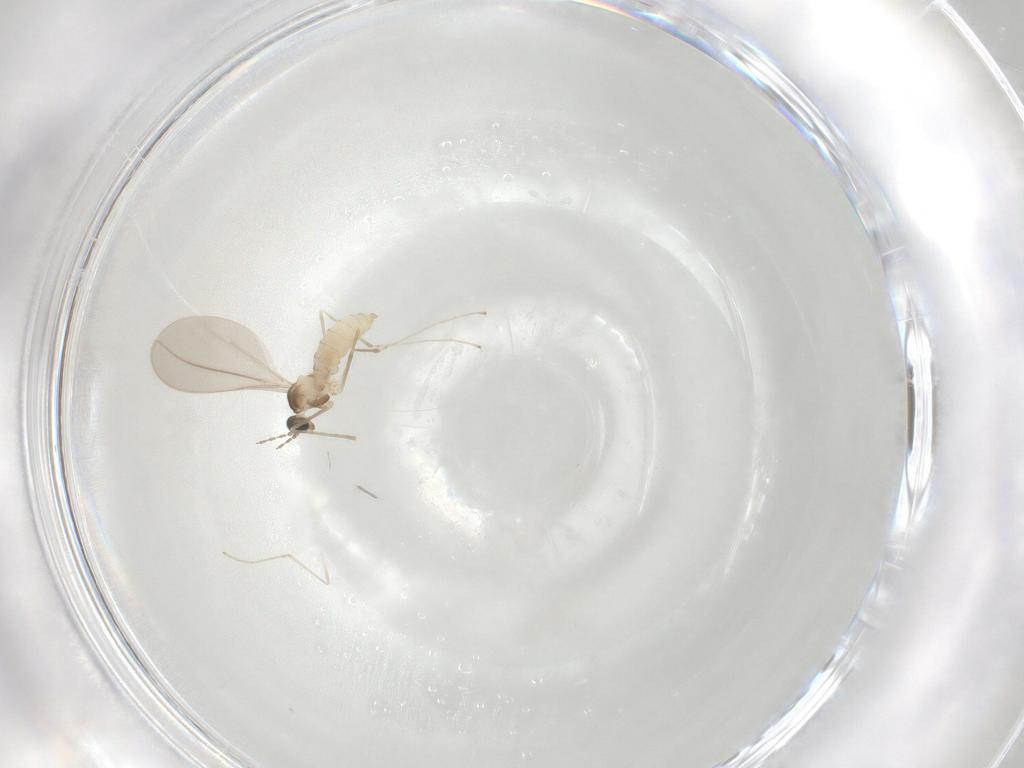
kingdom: Animalia
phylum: Arthropoda
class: Insecta
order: Diptera
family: Cecidomyiidae
